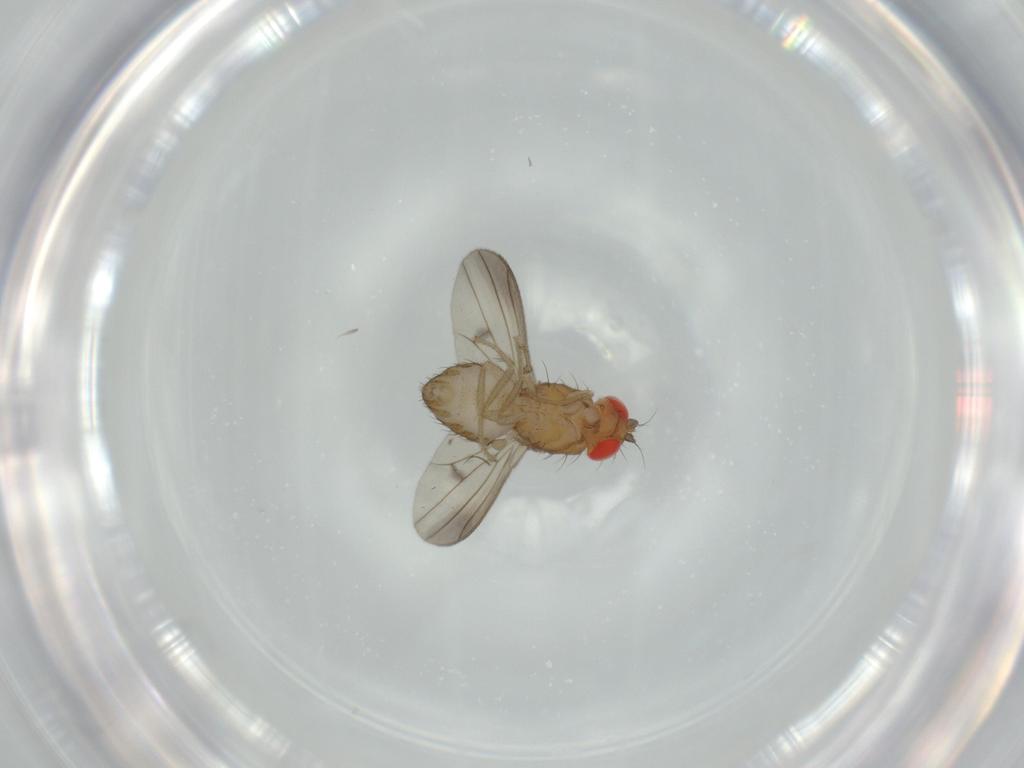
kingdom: Animalia
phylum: Arthropoda
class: Insecta
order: Diptera
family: Drosophilidae
